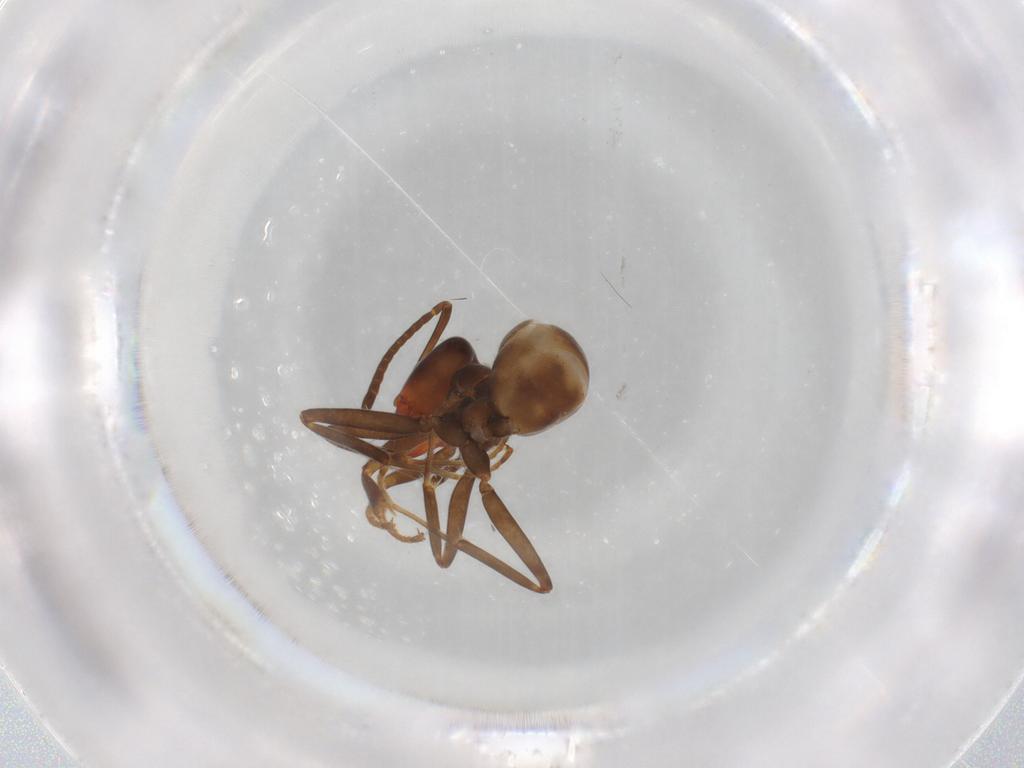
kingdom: Animalia
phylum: Arthropoda
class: Insecta
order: Hymenoptera
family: Formicidae
